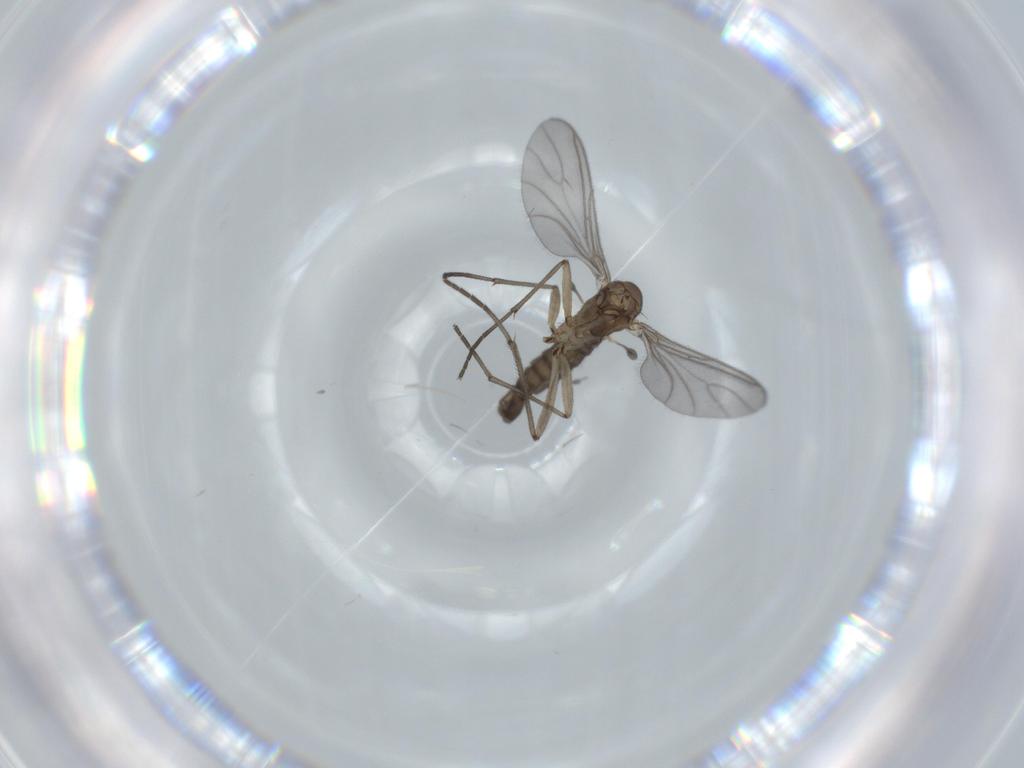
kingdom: Animalia
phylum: Arthropoda
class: Insecta
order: Diptera
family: Sciaridae
